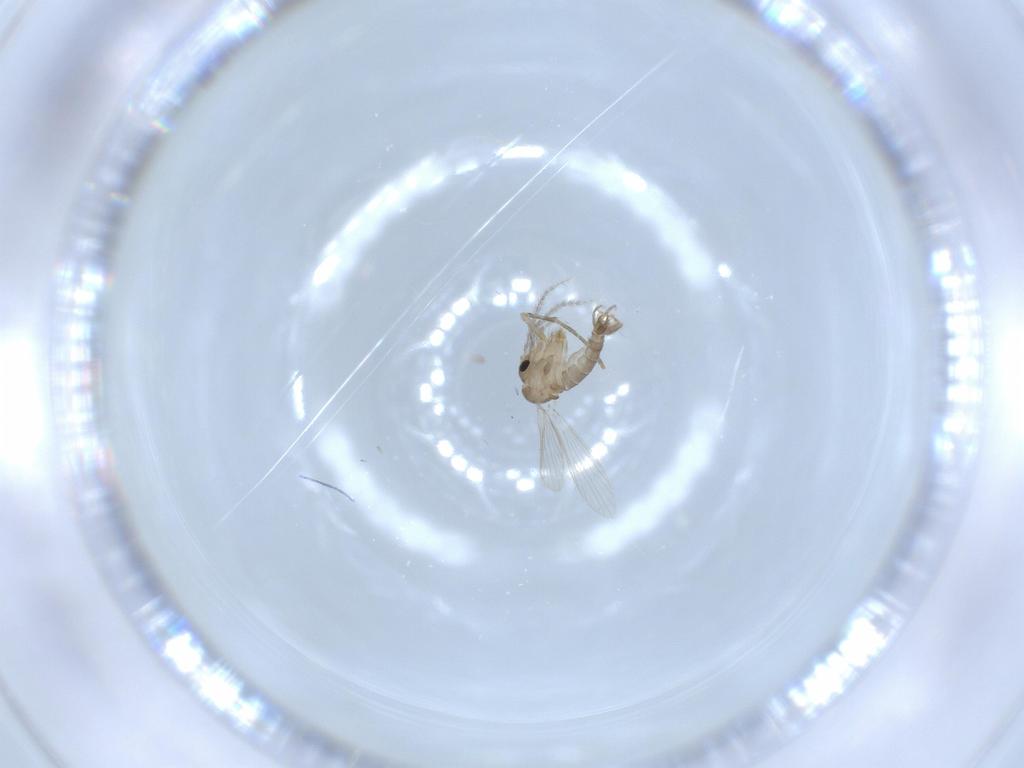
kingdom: Animalia
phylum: Arthropoda
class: Insecta
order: Diptera
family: Psychodidae
